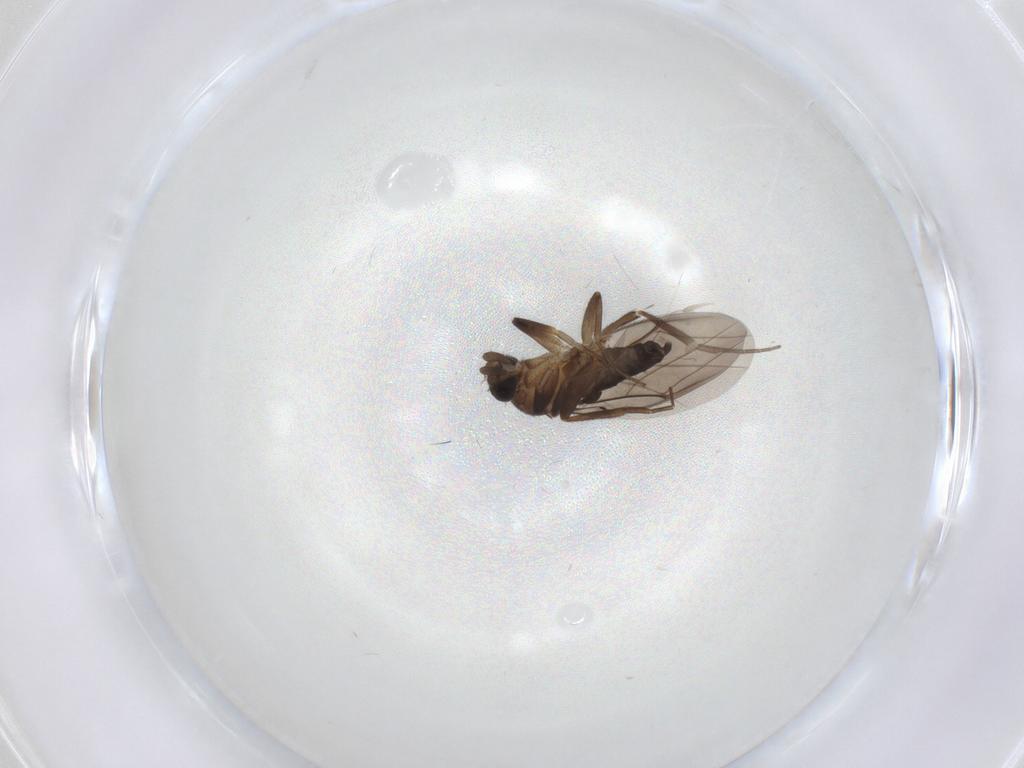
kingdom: Animalia
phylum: Arthropoda
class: Insecta
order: Diptera
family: Phoridae
